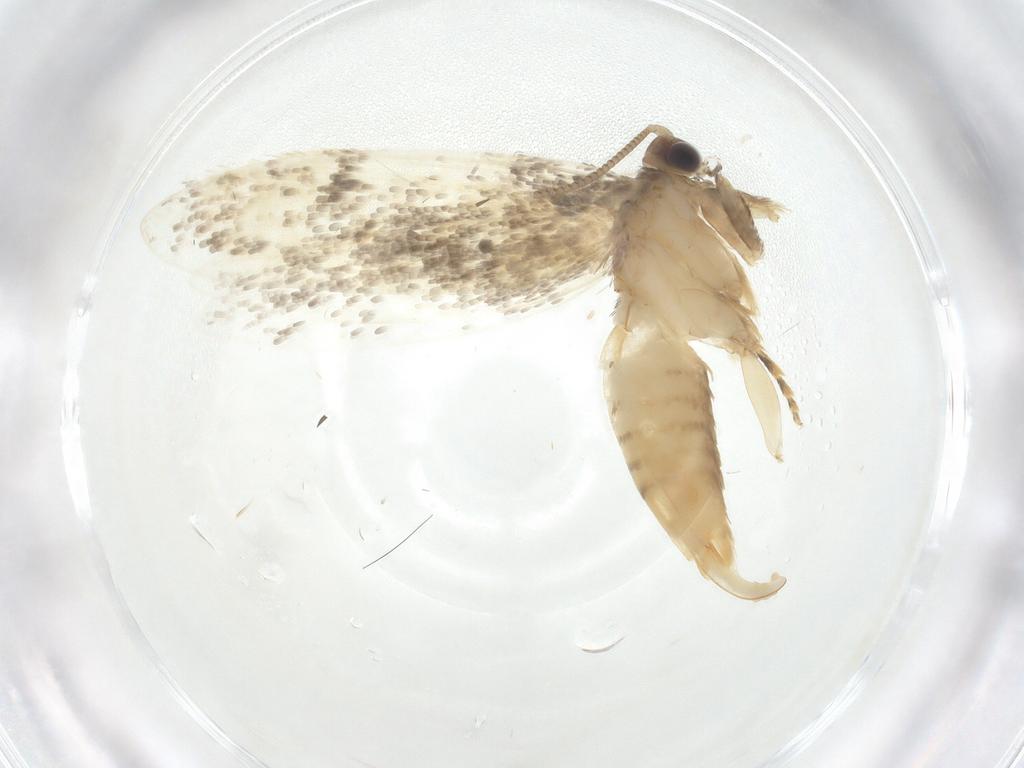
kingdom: Animalia
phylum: Arthropoda
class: Insecta
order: Lepidoptera
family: Tineidae
